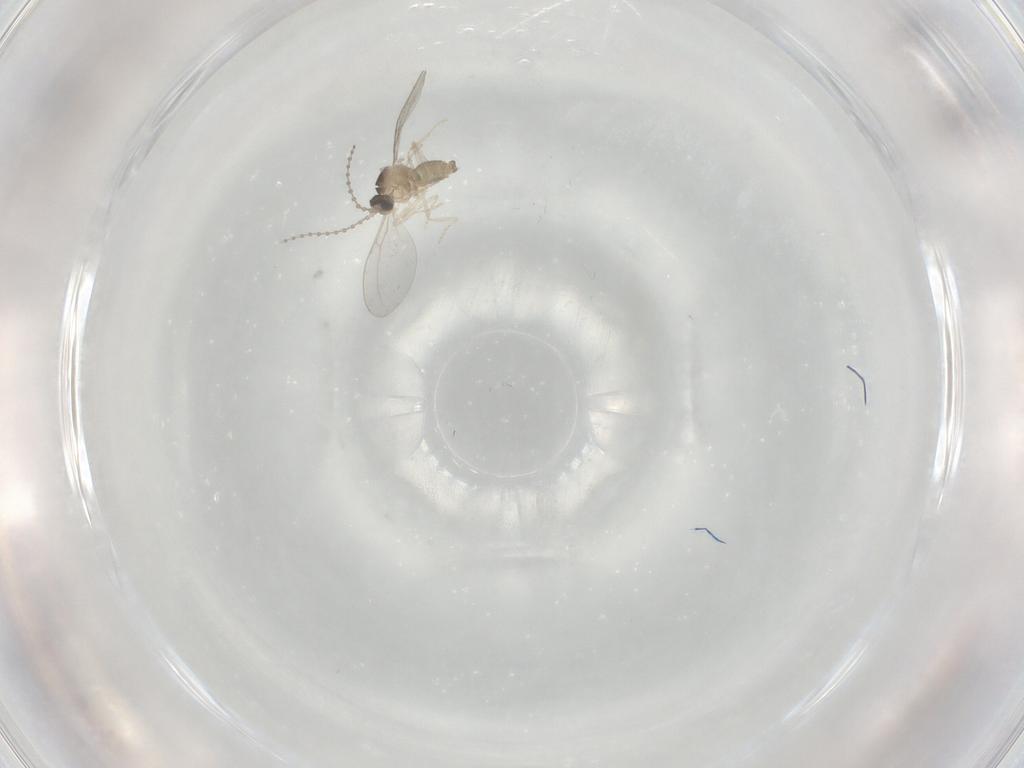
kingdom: Animalia
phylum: Arthropoda
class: Insecta
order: Diptera
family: Cecidomyiidae
